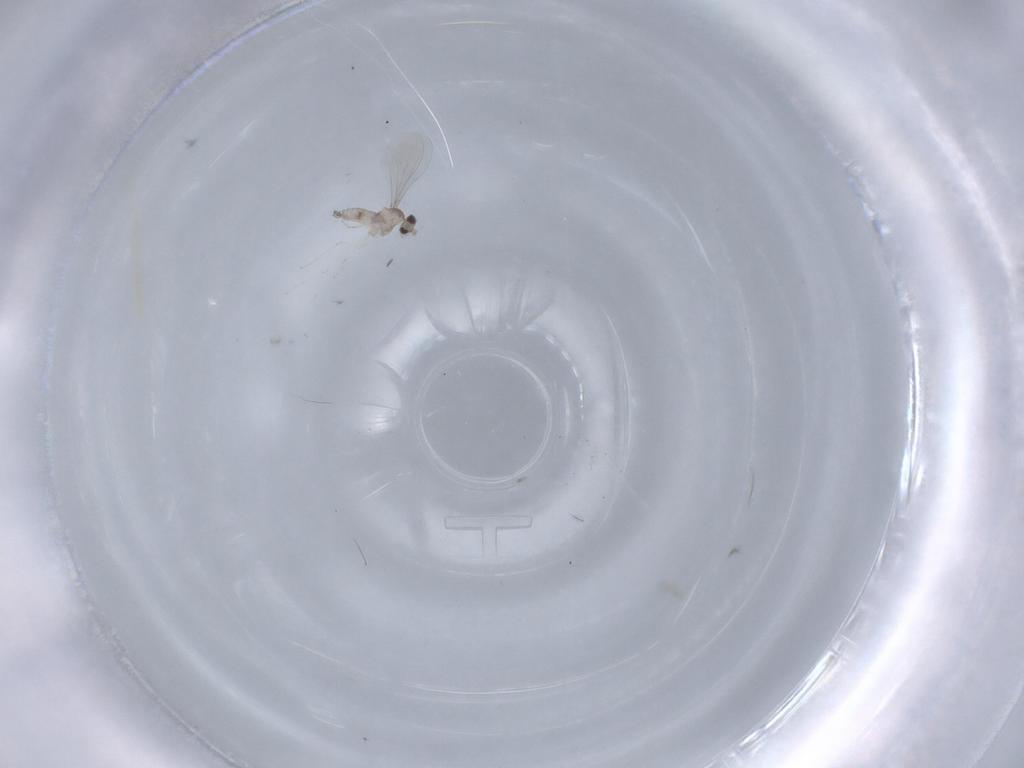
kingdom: Animalia
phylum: Arthropoda
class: Insecta
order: Diptera
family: Cecidomyiidae
